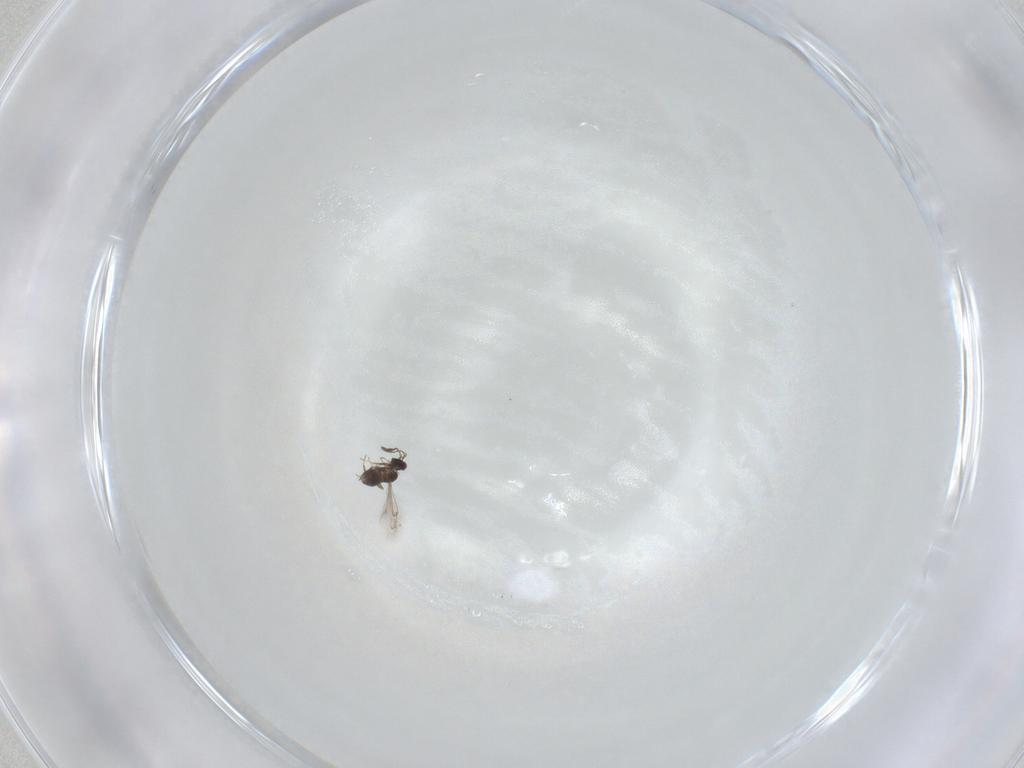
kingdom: Animalia
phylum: Arthropoda
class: Insecta
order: Hymenoptera
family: Mymaridae
